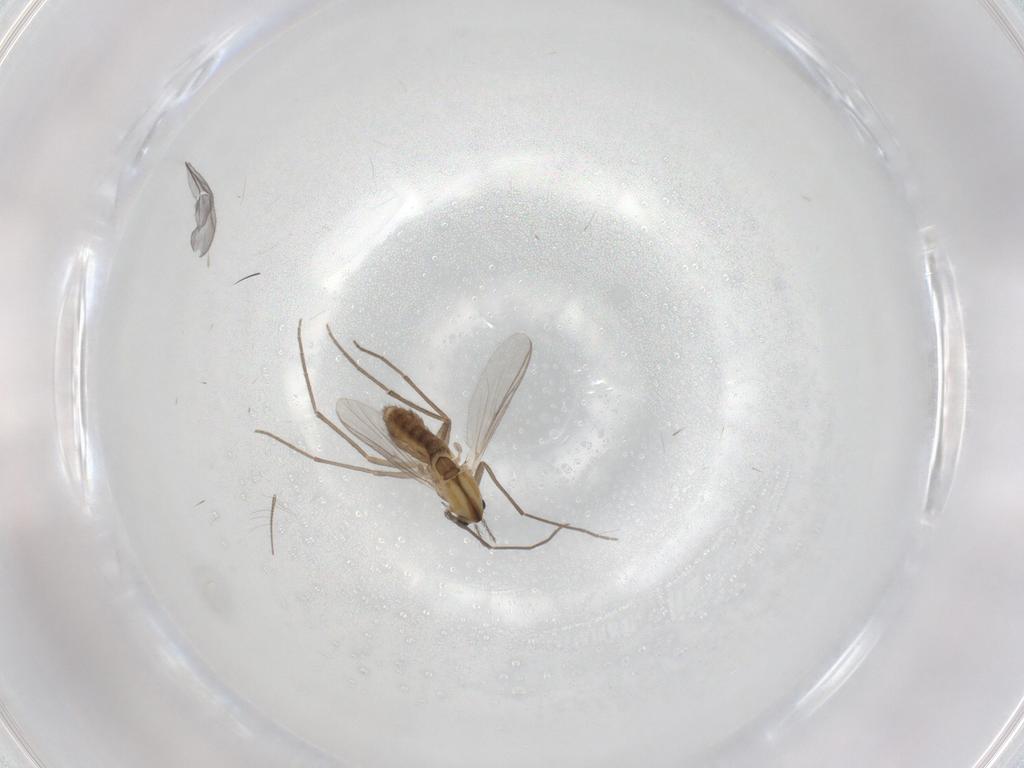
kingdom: Animalia
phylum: Arthropoda
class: Insecta
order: Diptera
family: Chironomidae
